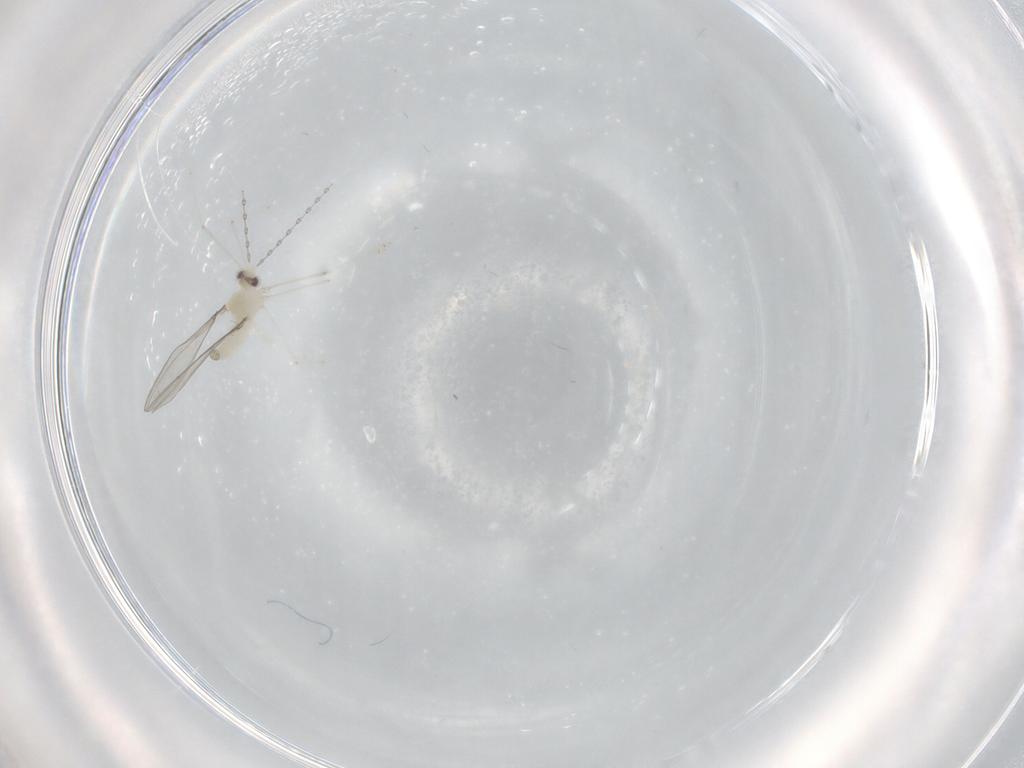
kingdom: Animalia
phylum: Arthropoda
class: Insecta
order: Diptera
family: Cecidomyiidae
